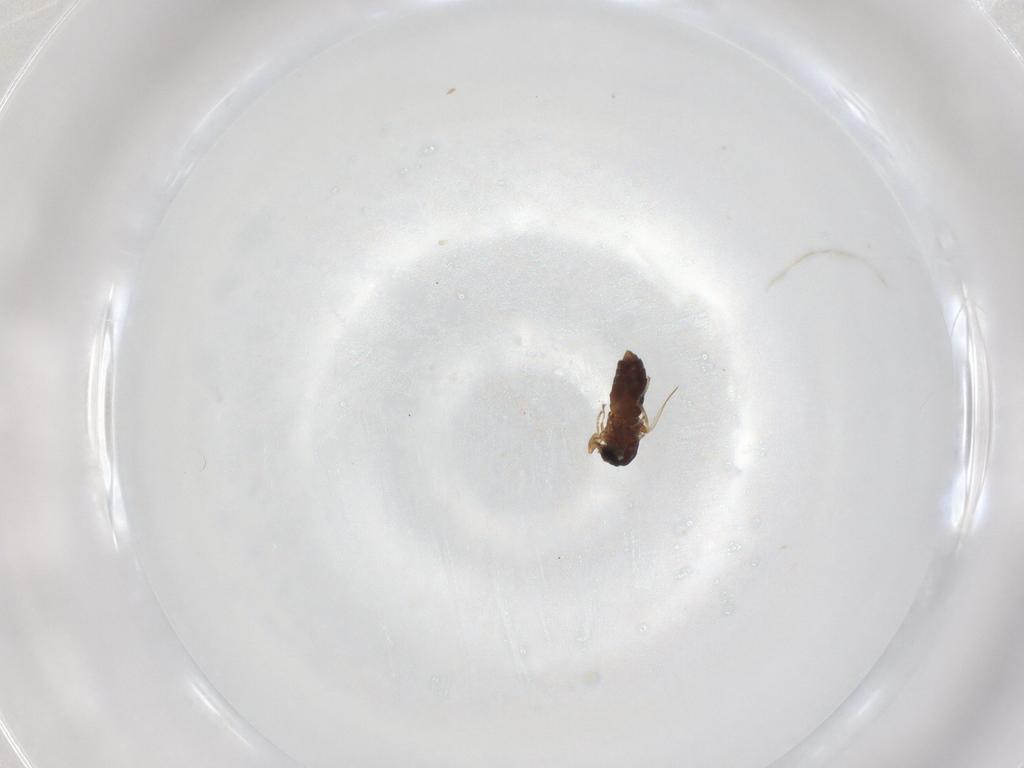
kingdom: Animalia
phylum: Arthropoda
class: Insecta
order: Diptera
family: Scatopsidae
